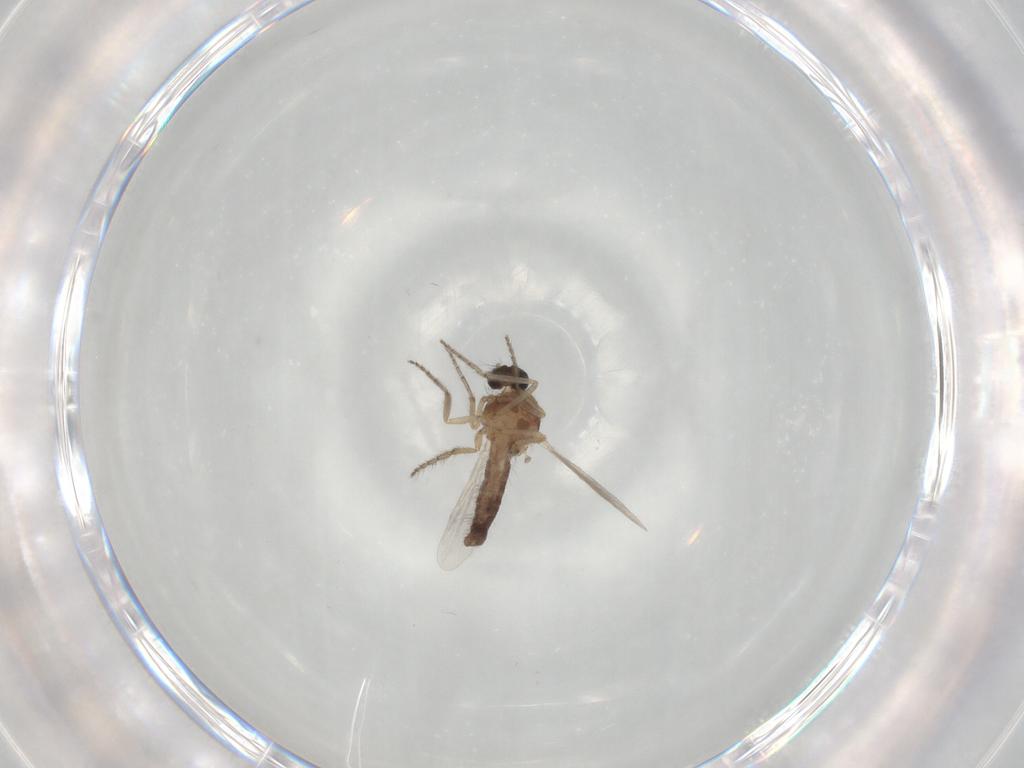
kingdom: Animalia
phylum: Arthropoda
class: Insecta
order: Diptera
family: Ceratopogonidae
